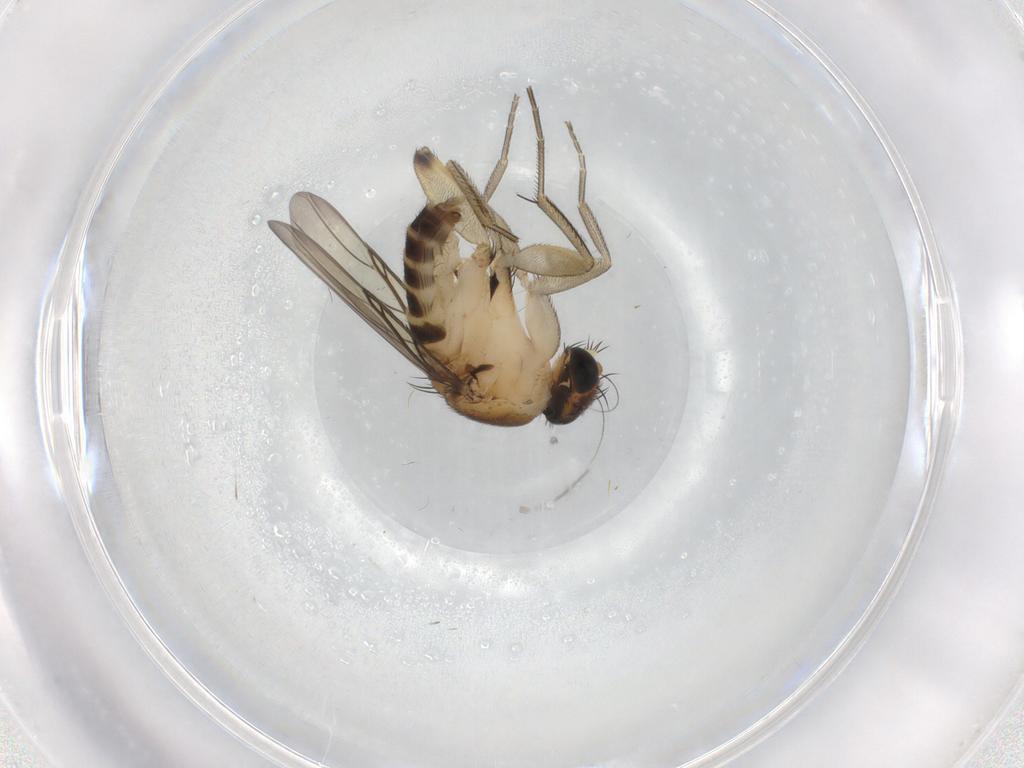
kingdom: Animalia
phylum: Arthropoda
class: Insecta
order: Diptera
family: Phoridae
